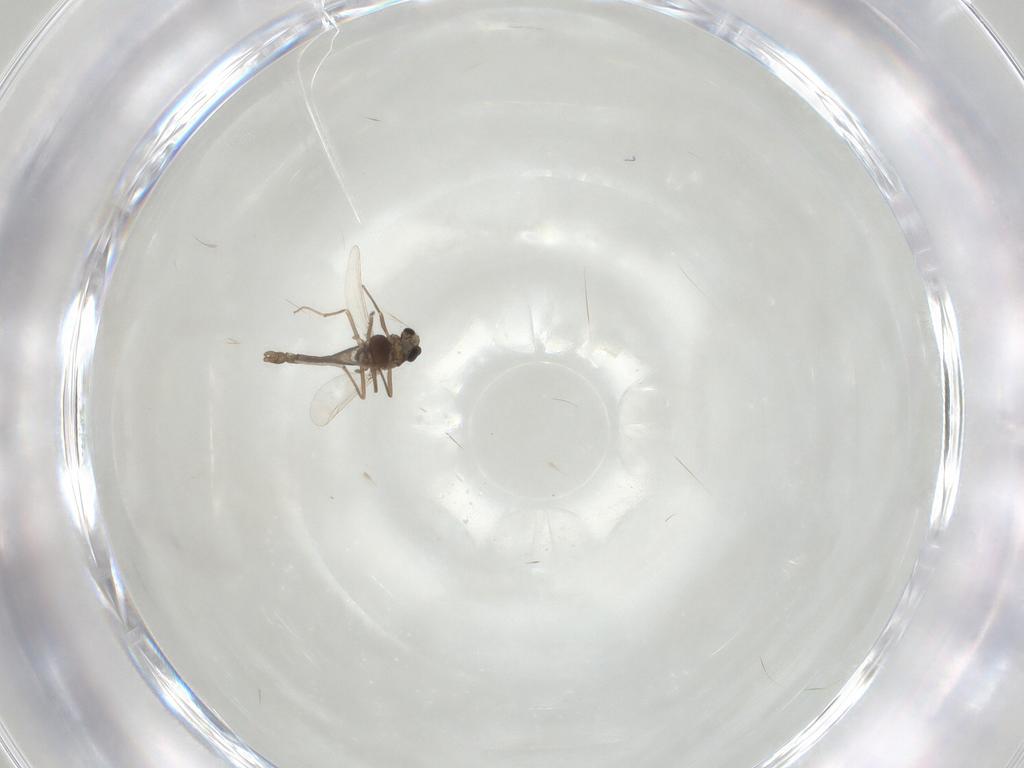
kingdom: Animalia
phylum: Arthropoda
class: Insecta
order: Diptera
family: Chironomidae
